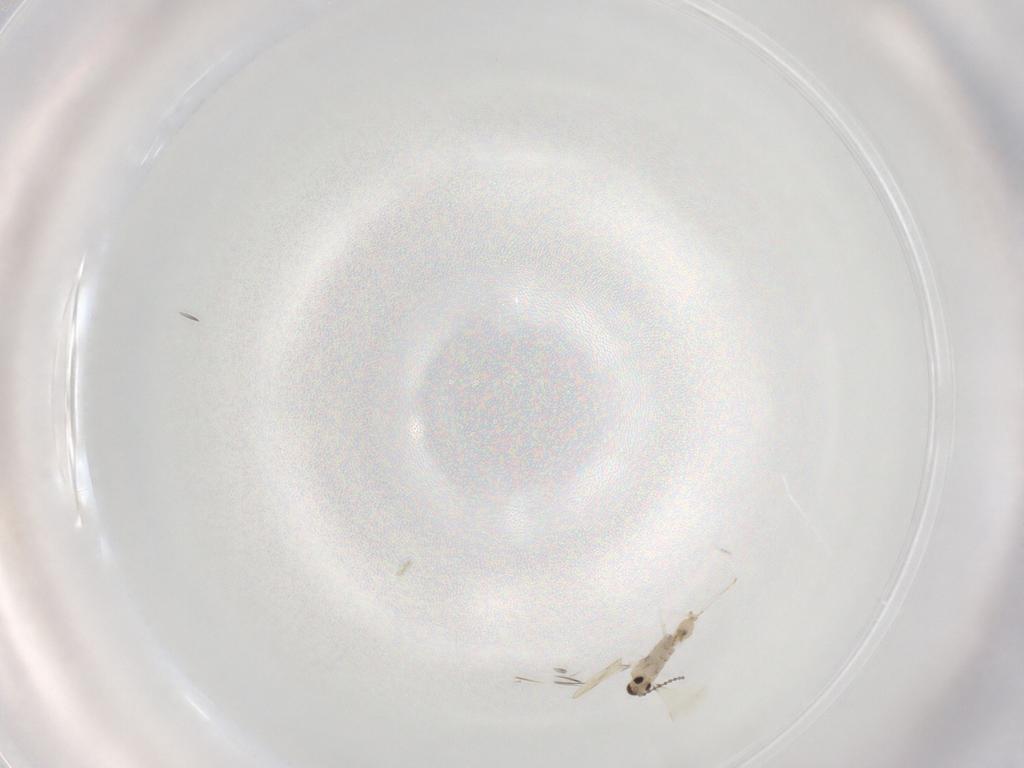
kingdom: Animalia
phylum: Arthropoda
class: Insecta
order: Diptera
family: Cecidomyiidae
